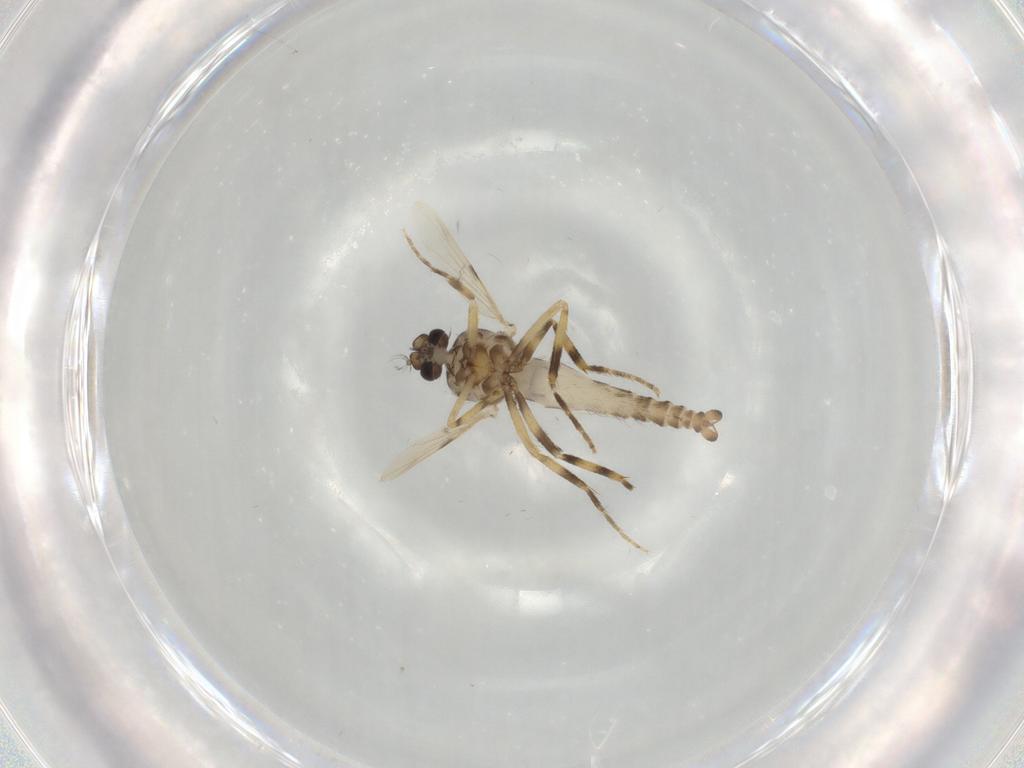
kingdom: Animalia
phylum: Arthropoda
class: Insecta
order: Diptera
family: Ceratopogonidae
